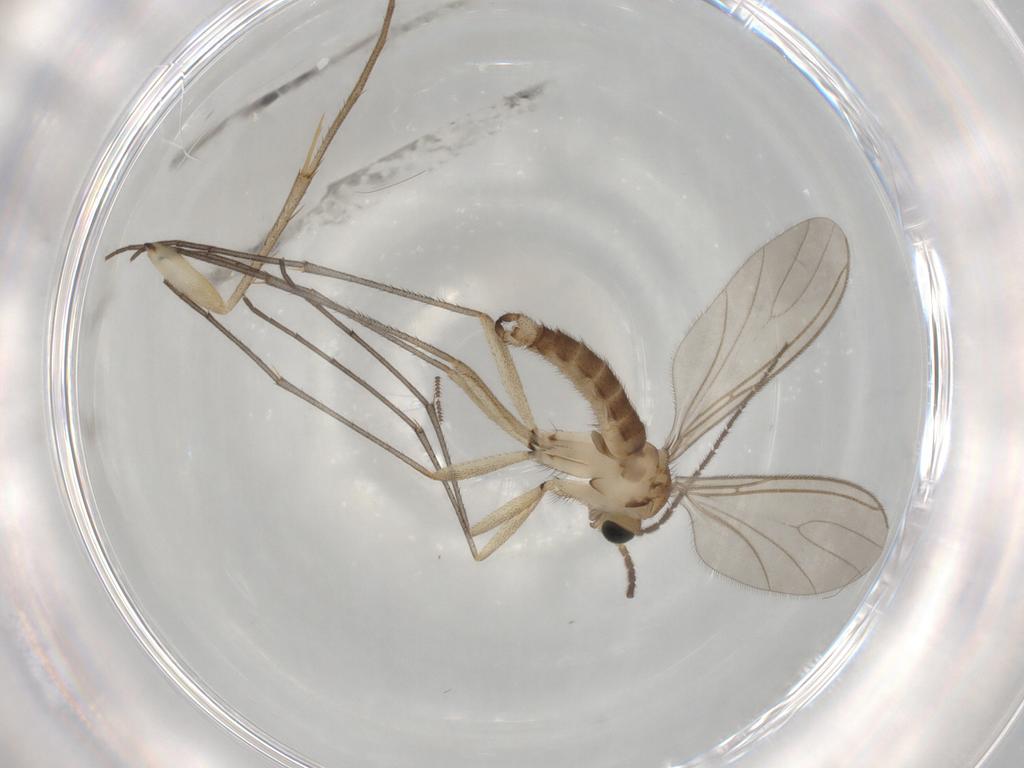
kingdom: Animalia
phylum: Arthropoda
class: Insecta
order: Diptera
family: Sciaridae
